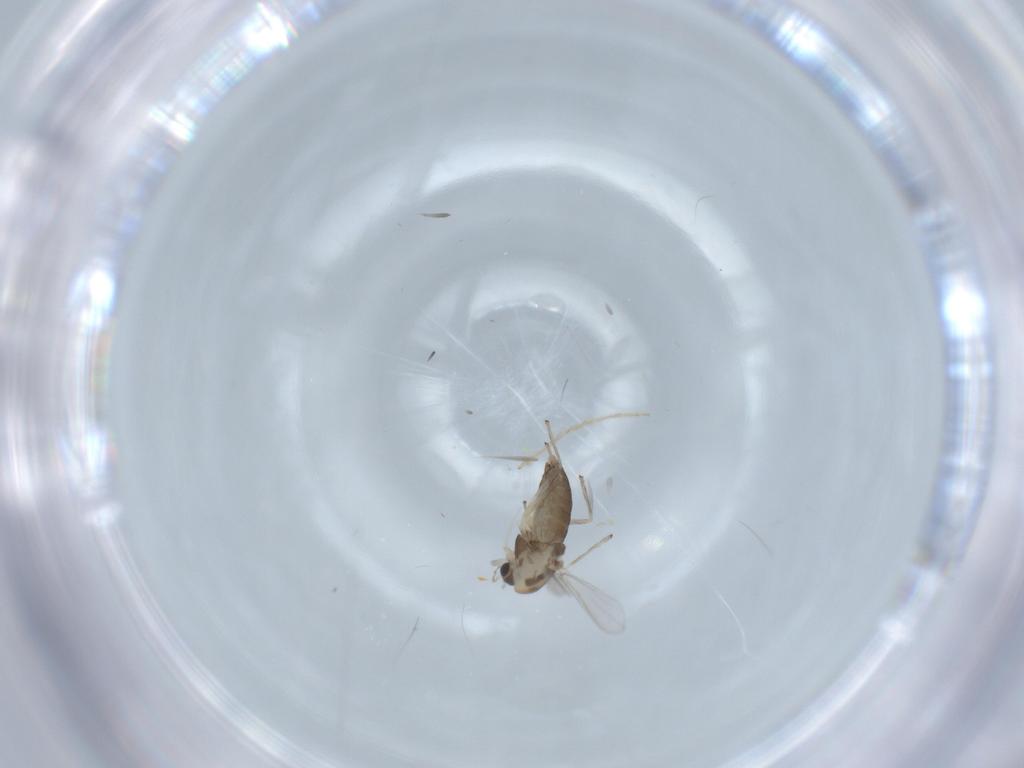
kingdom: Animalia
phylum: Arthropoda
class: Insecta
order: Diptera
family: Chironomidae
